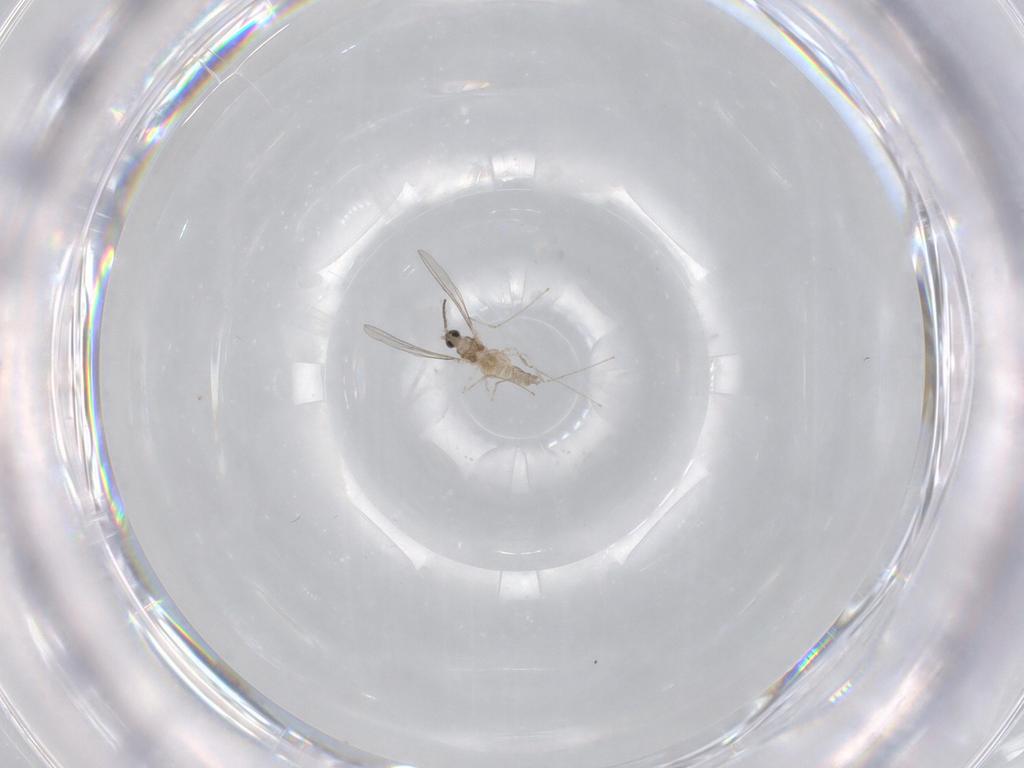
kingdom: Animalia
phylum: Arthropoda
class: Insecta
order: Diptera
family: Cecidomyiidae
